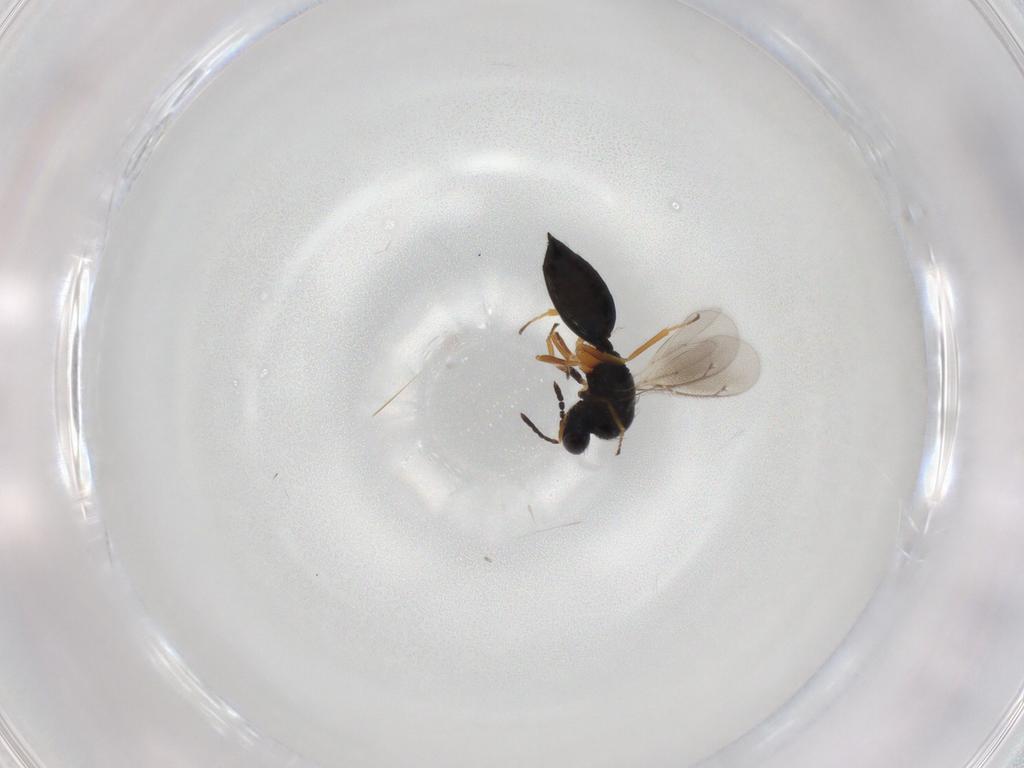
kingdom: Animalia
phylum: Arthropoda
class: Insecta
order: Hymenoptera
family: Eulophidae
